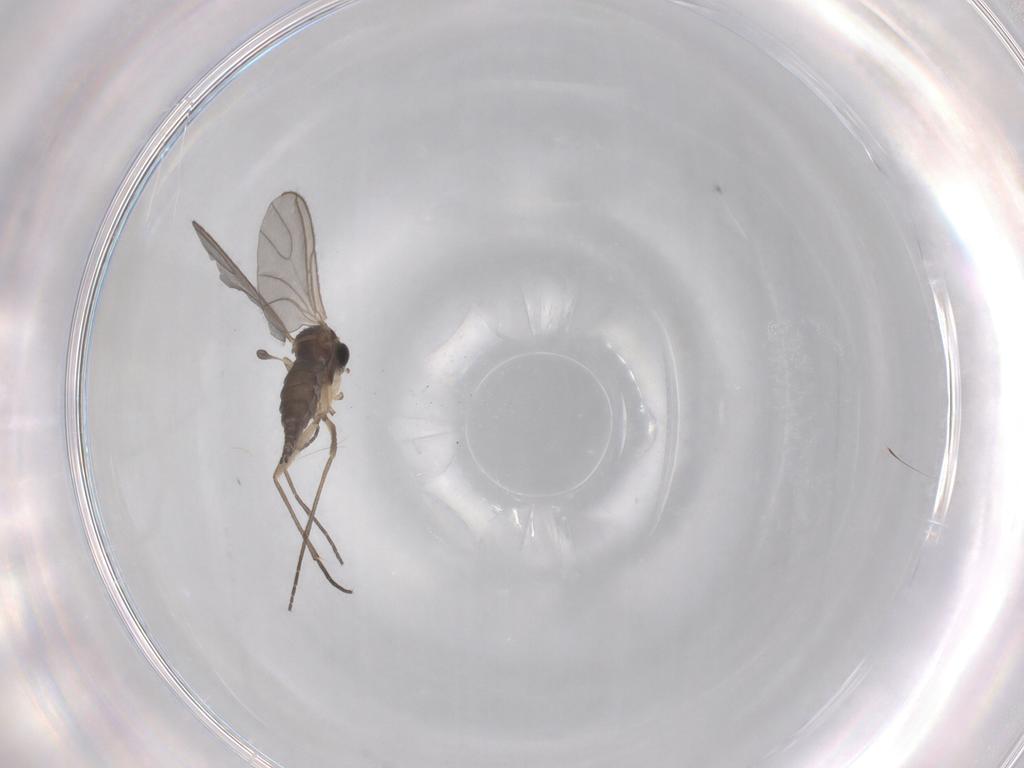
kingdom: Animalia
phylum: Arthropoda
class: Insecta
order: Diptera
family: Sciaridae
